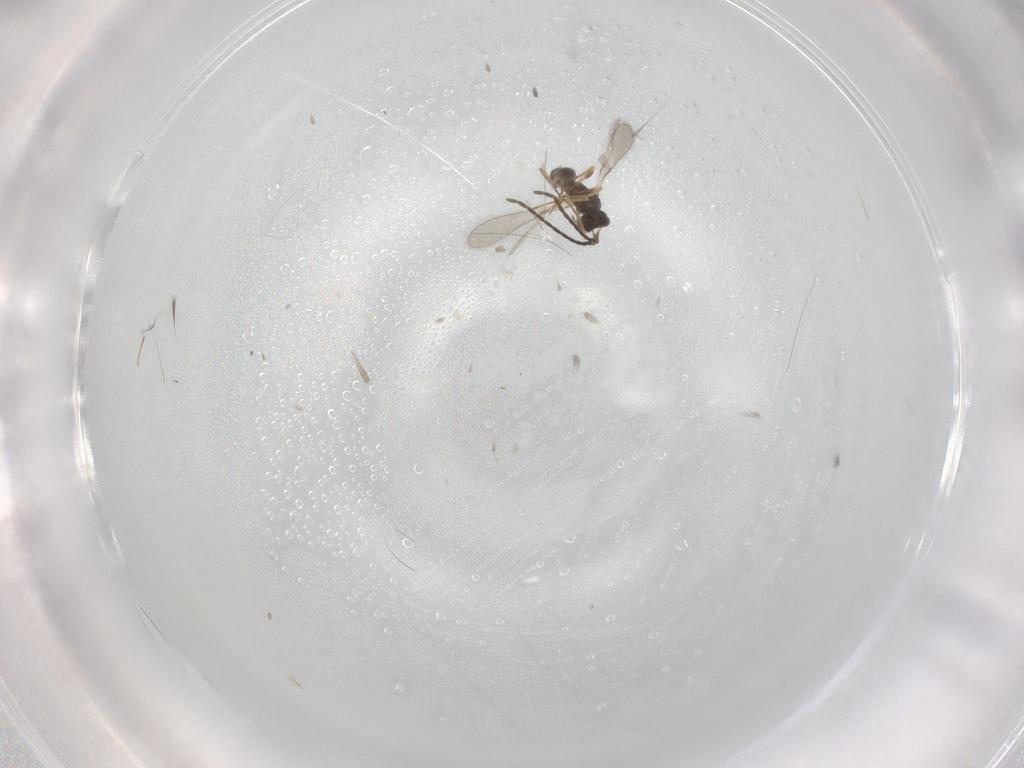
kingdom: Animalia
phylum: Arthropoda
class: Insecta
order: Hymenoptera
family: Mymaridae
